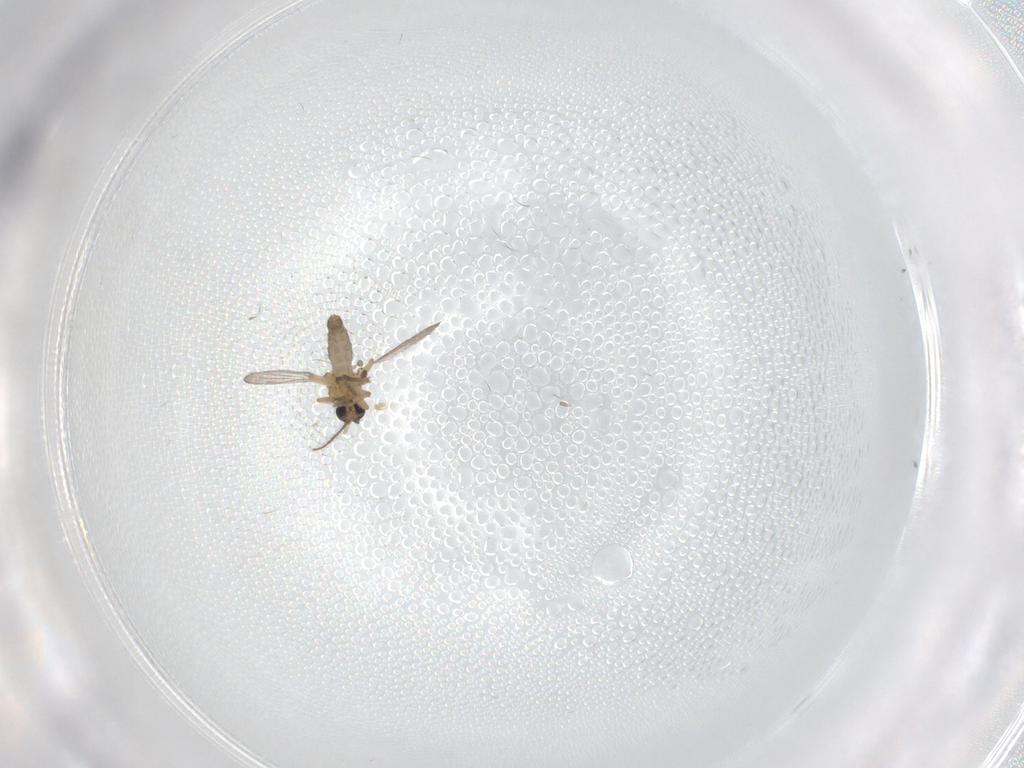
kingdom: Animalia
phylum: Arthropoda
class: Insecta
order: Diptera
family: Ceratopogonidae
